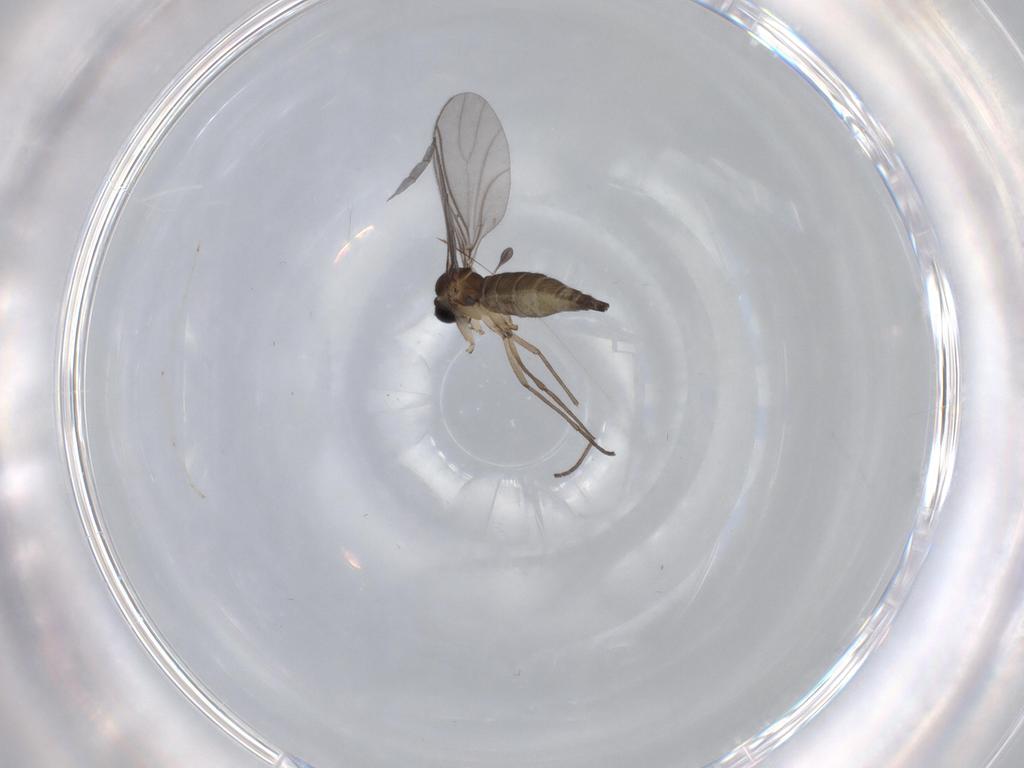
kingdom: Animalia
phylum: Arthropoda
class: Insecta
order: Diptera
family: Sciaridae
